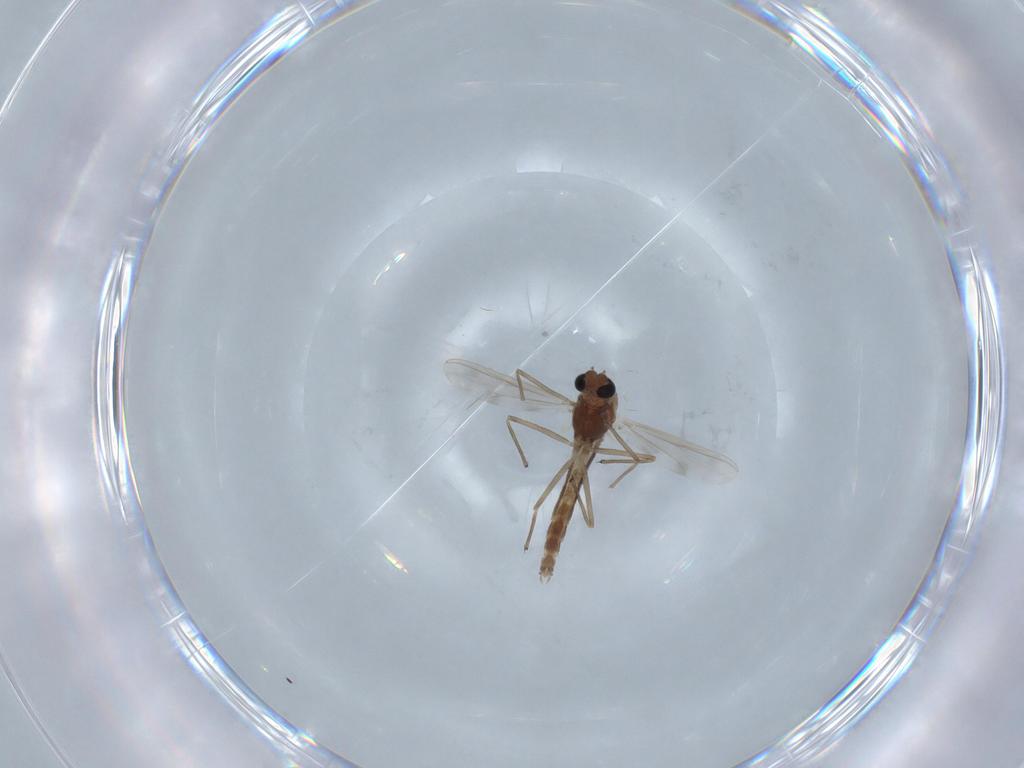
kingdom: Animalia
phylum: Arthropoda
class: Insecta
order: Diptera
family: Chironomidae
